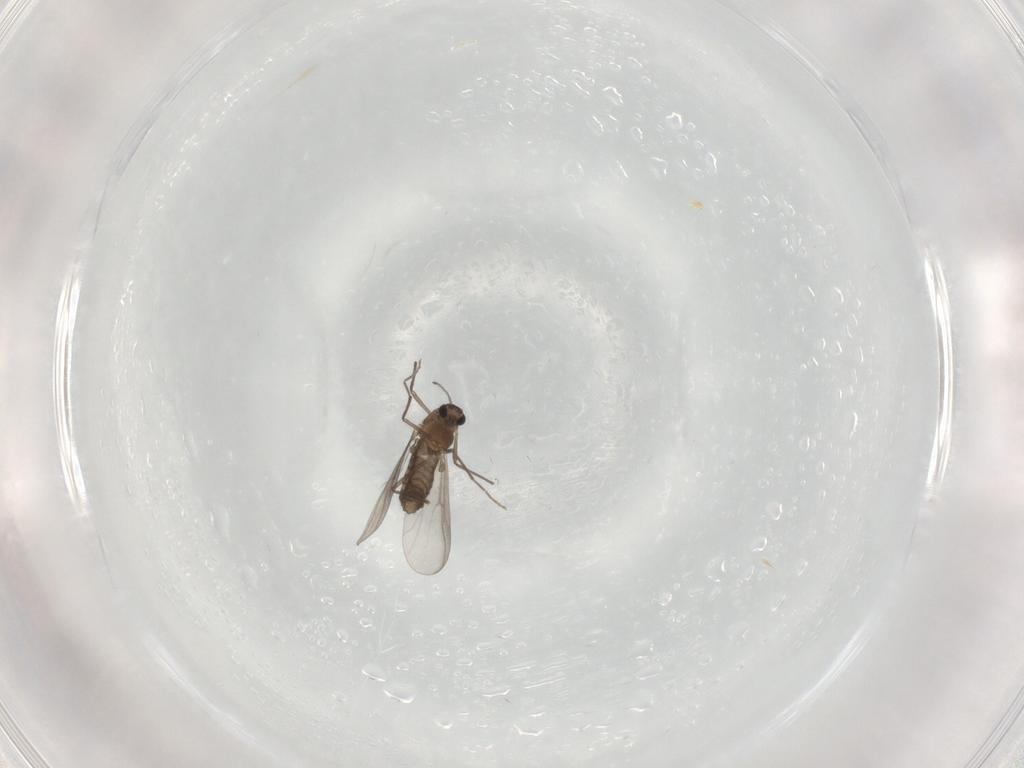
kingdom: Animalia
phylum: Arthropoda
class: Insecta
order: Diptera
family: Chironomidae
